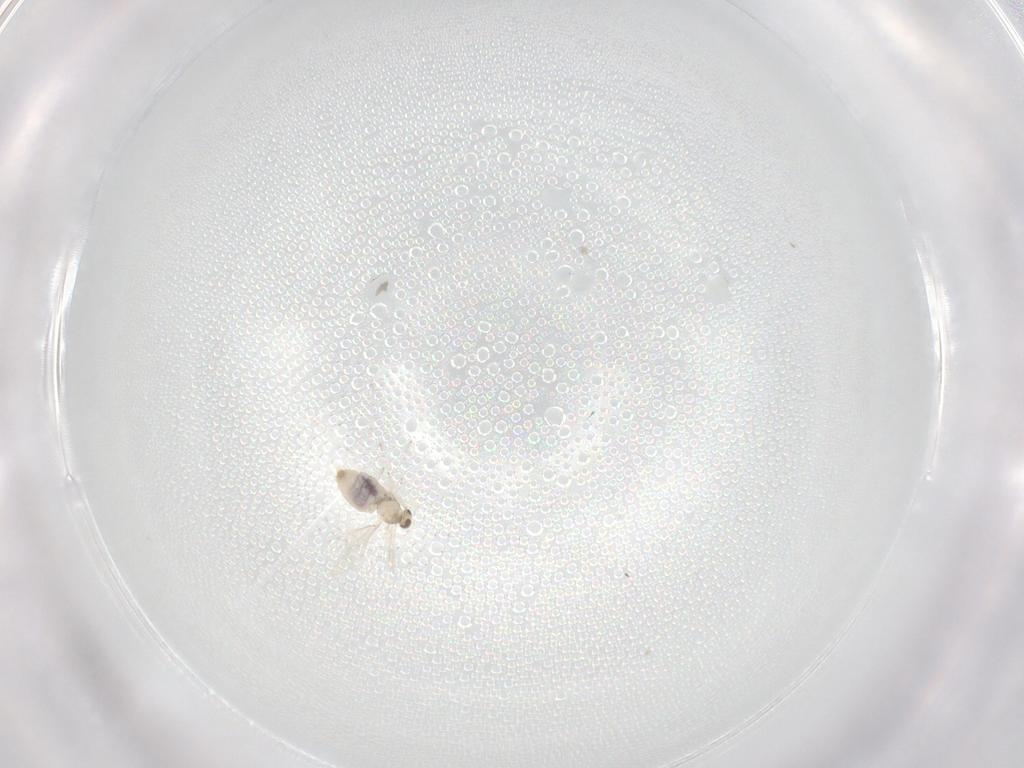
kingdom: Animalia
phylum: Arthropoda
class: Insecta
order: Diptera
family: Cecidomyiidae
